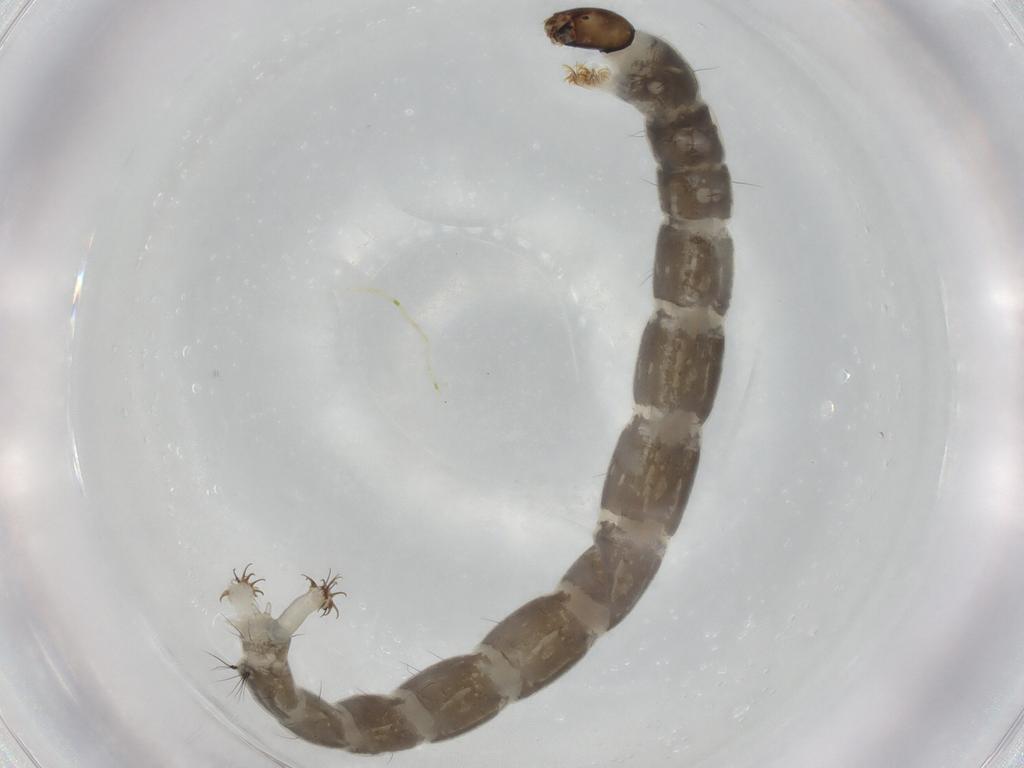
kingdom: Animalia
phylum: Arthropoda
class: Insecta
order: Diptera
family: Chironomidae
